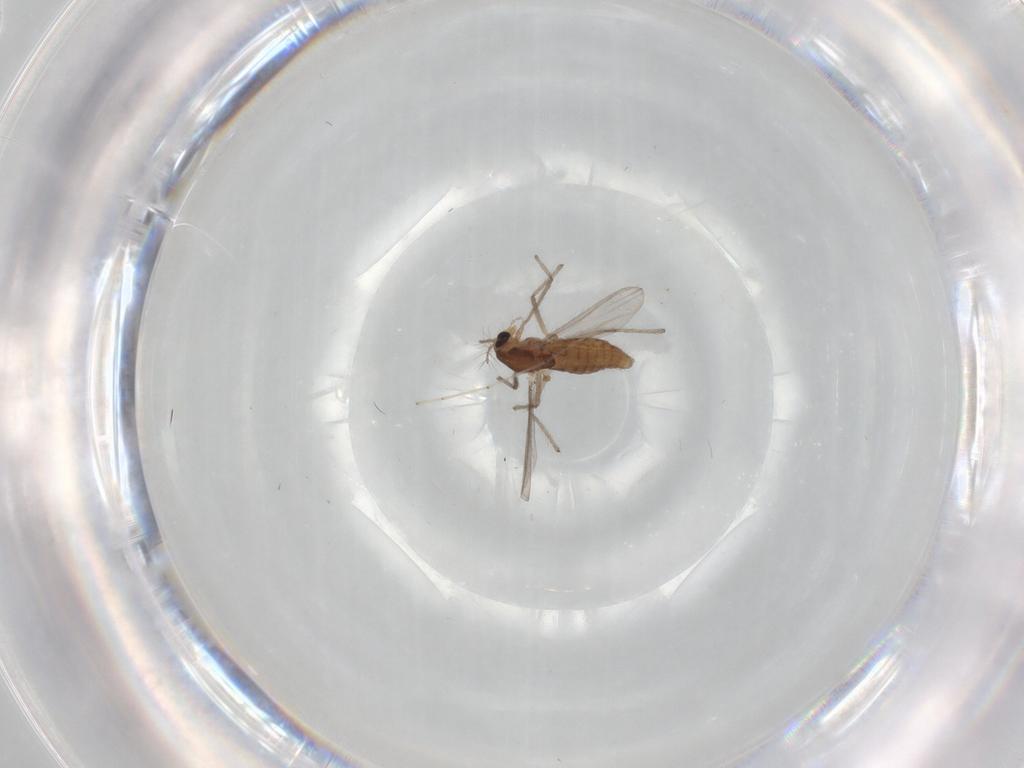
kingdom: Animalia
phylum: Arthropoda
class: Insecta
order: Diptera
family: Chironomidae
